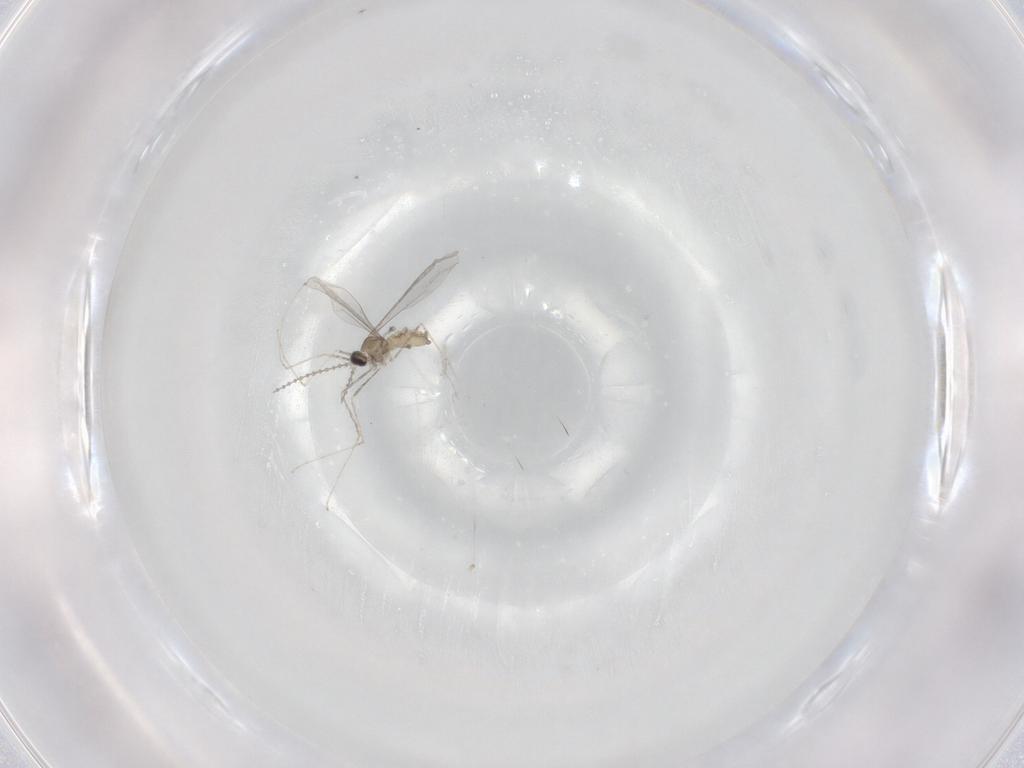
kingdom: Animalia
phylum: Arthropoda
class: Insecta
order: Diptera
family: Cecidomyiidae
